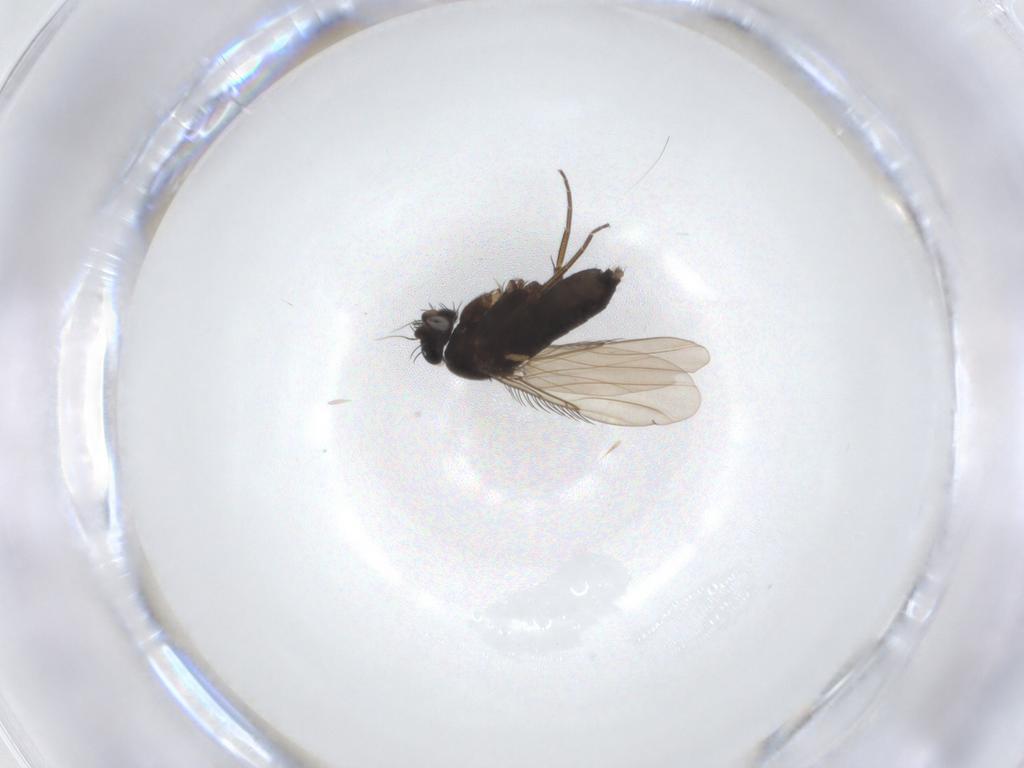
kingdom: Animalia
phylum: Arthropoda
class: Insecta
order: Diptera
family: Phoridae
